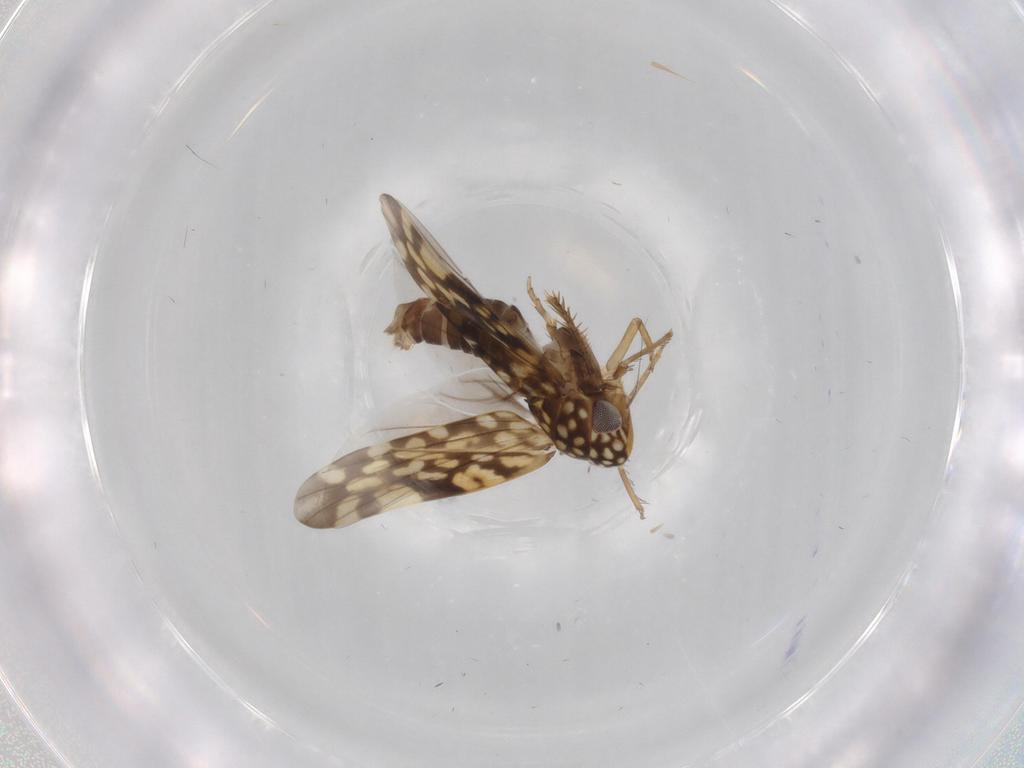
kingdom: Animalia
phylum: Arthropoda
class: Insecta
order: Hemiptera
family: Cicadellidae
